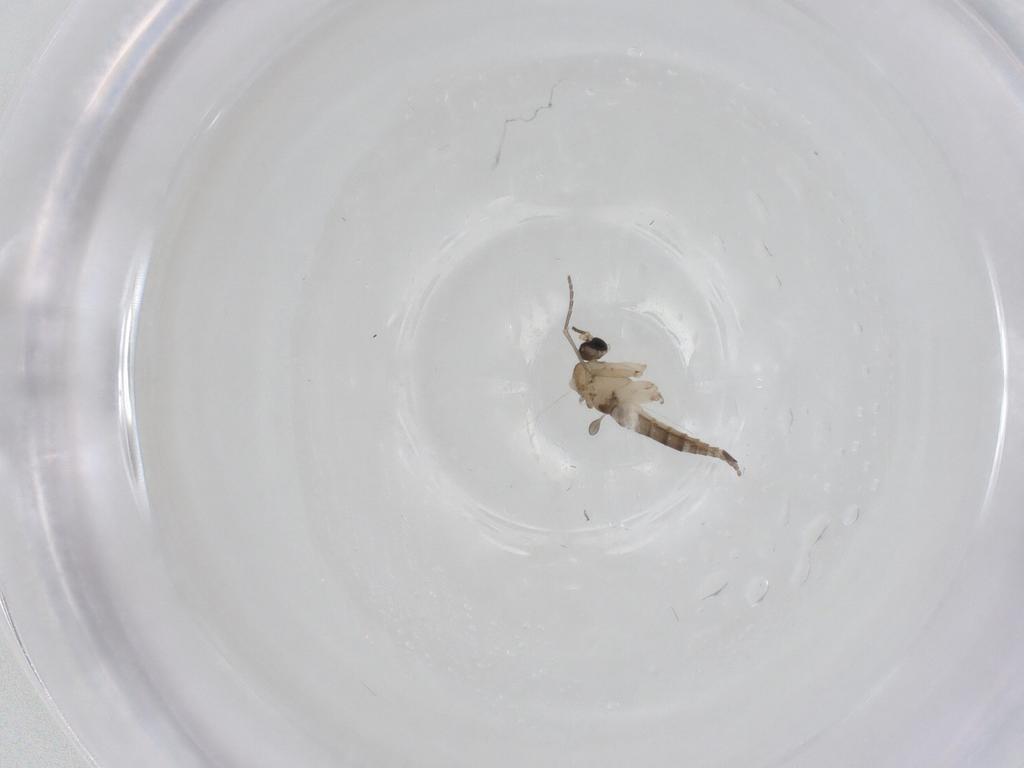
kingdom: Animalia
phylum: Arthropoda
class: Insecta
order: Diptera
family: Sciaridae
